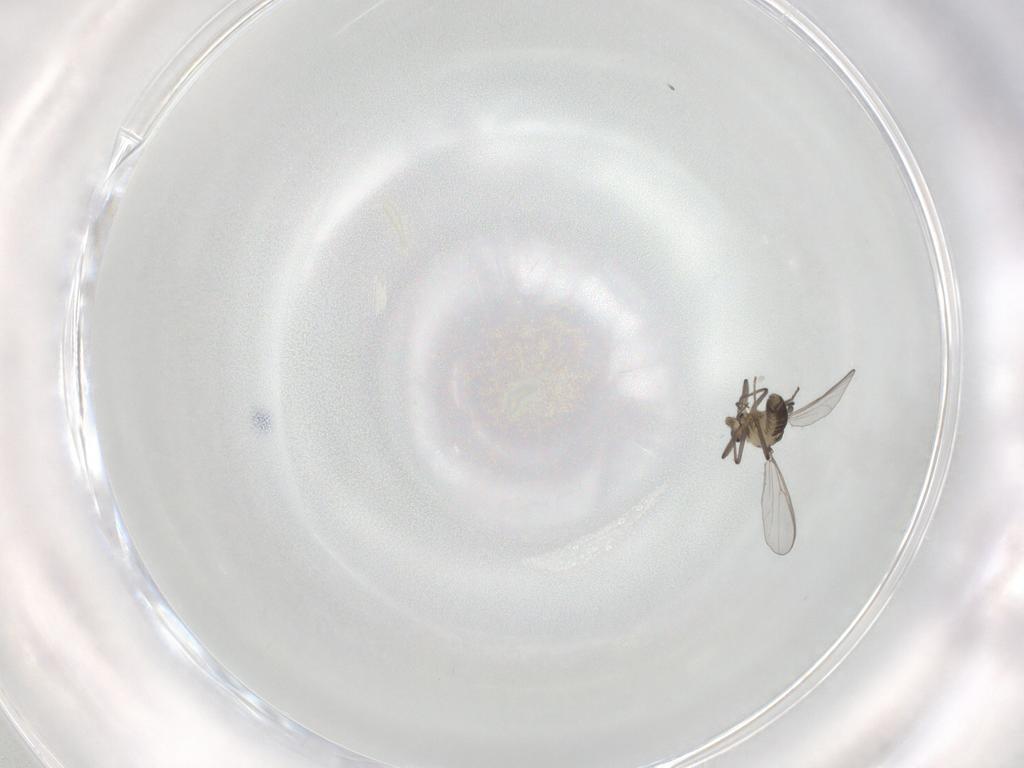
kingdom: Animalia
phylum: Arthropoda
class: Insecta
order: Diptera
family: Chironomidae
